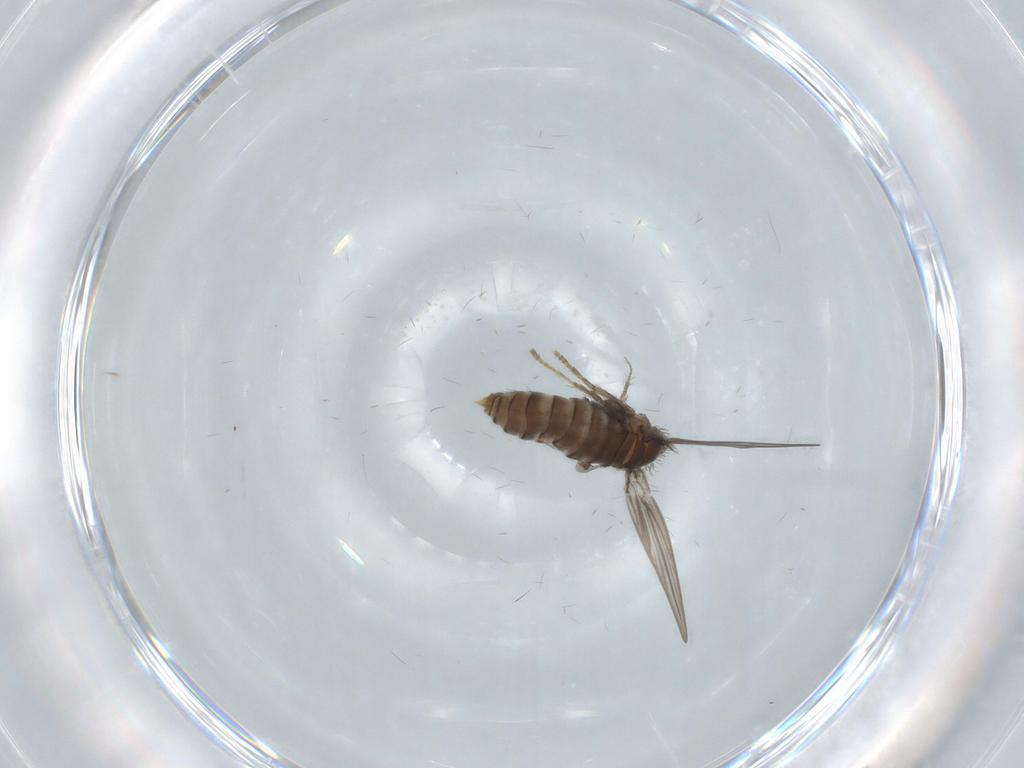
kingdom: Animalia
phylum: Arthropoda
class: Insecta
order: Diptera
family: Psychodidae
